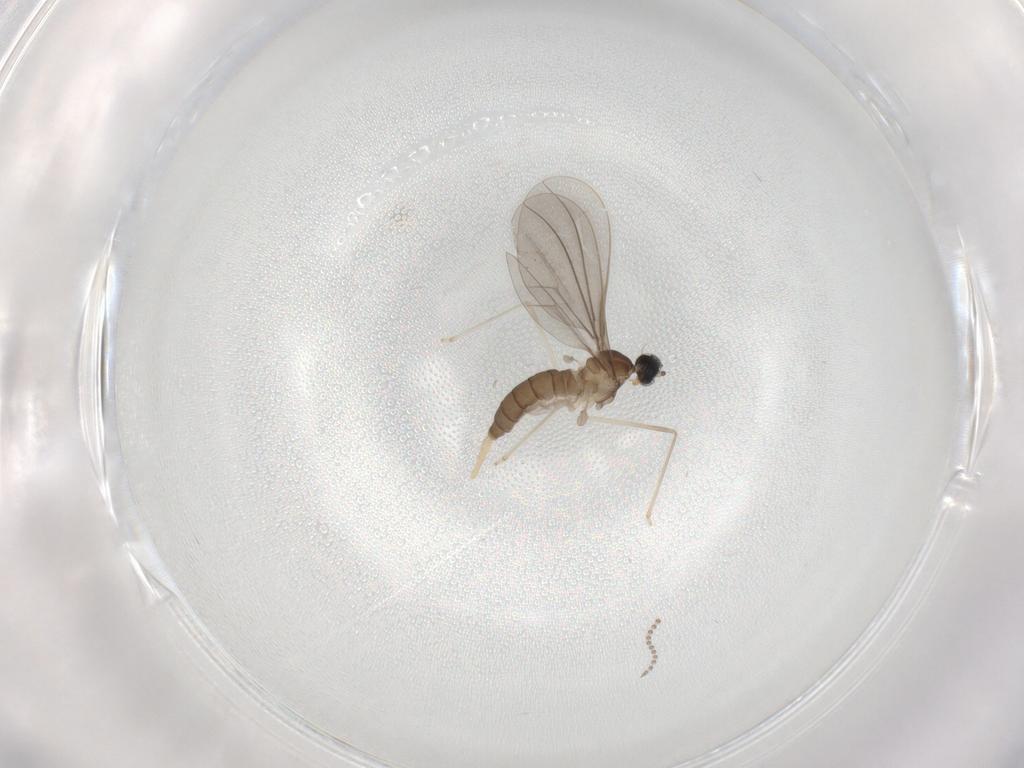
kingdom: Animalia
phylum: Arthropoda
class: Insecta
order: Diptera
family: Cecidomyiidae
